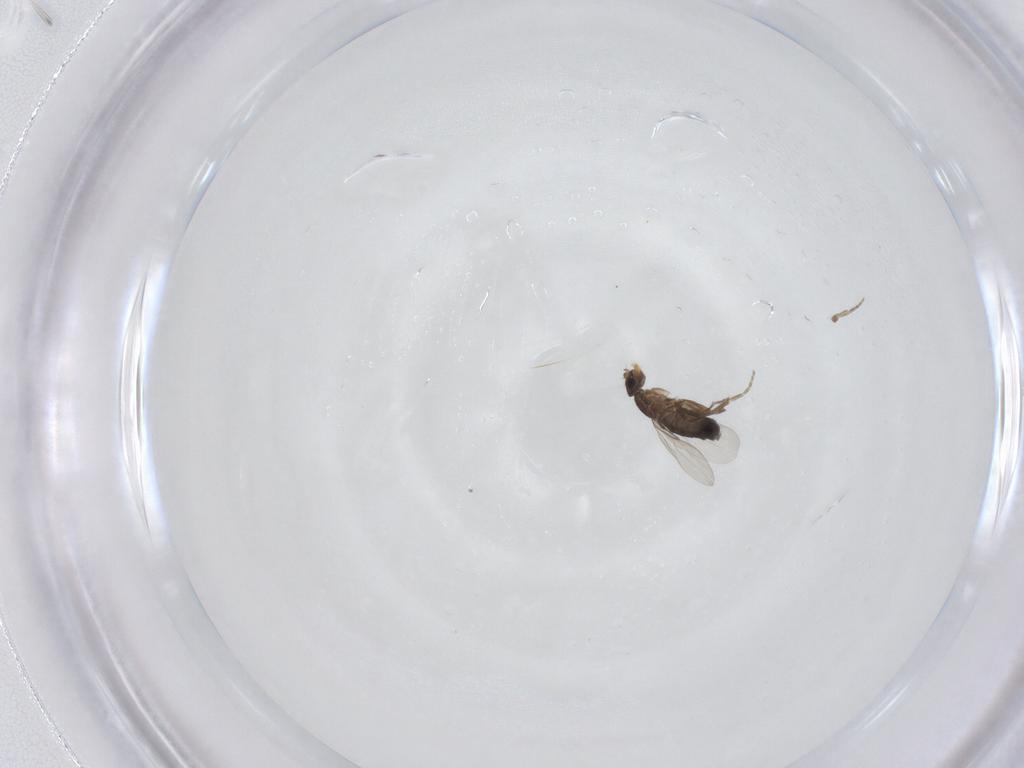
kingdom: Animalia
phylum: Arthropoda
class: Insecta
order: Diptera
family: Phoridae
